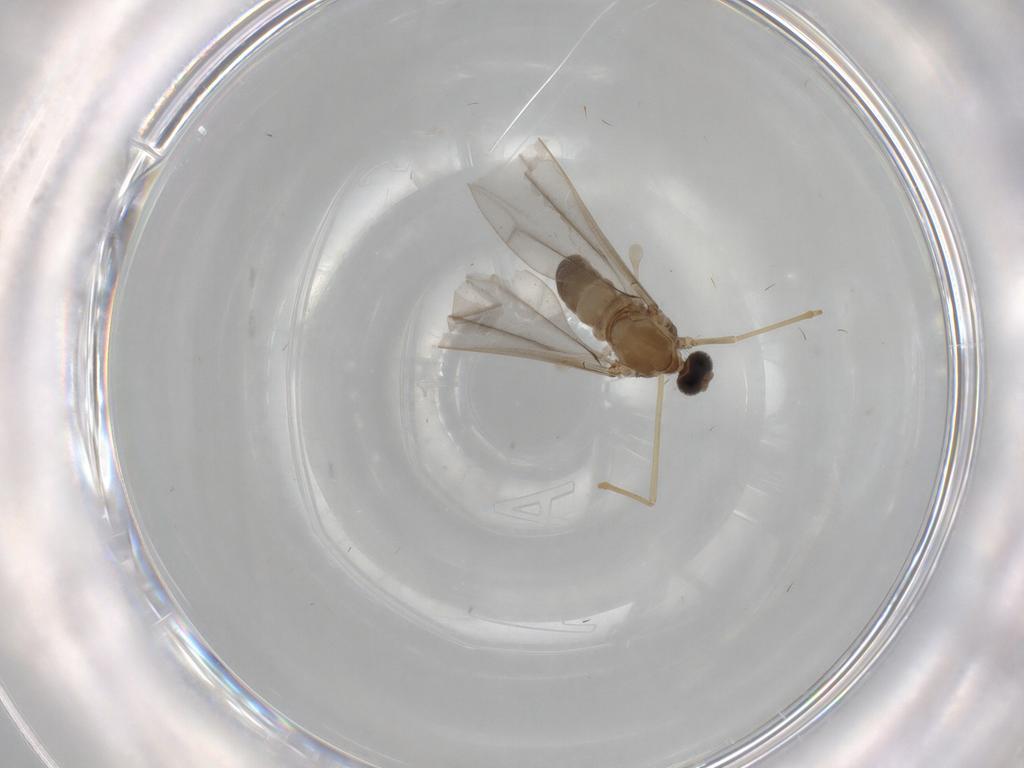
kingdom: Animalia
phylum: Arthropoda
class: Insecta
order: Diptera
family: Cecidomyiidae
